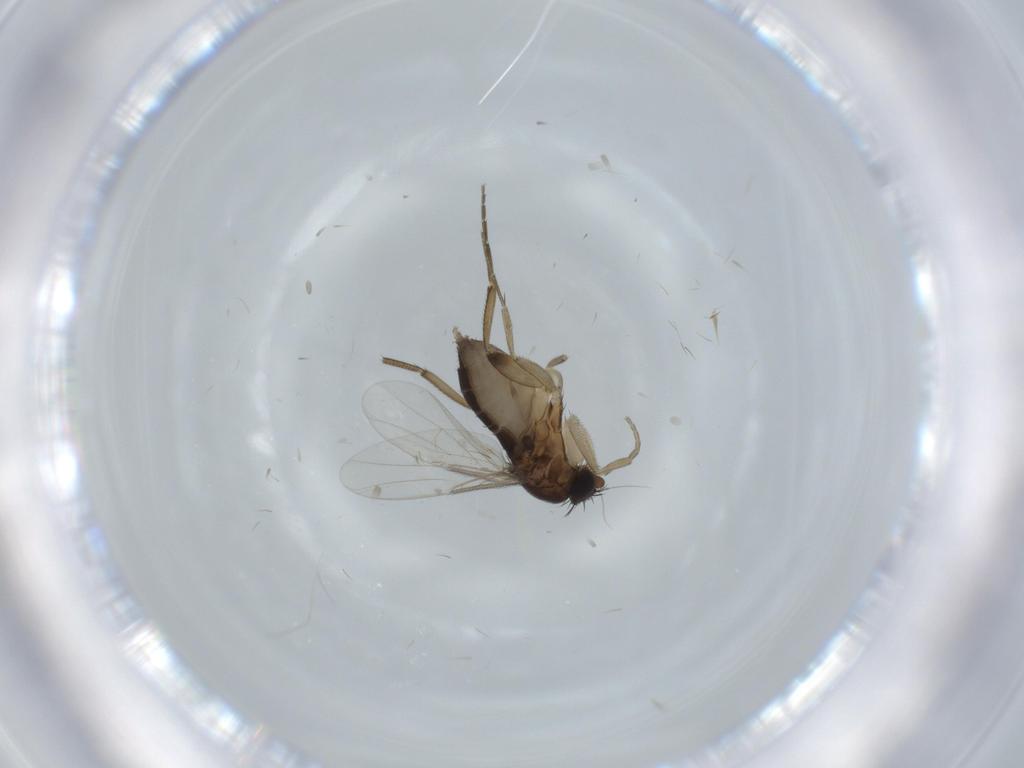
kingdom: Animalia
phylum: Arthropoda
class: Insecta
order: Diptera
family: Phoridae
